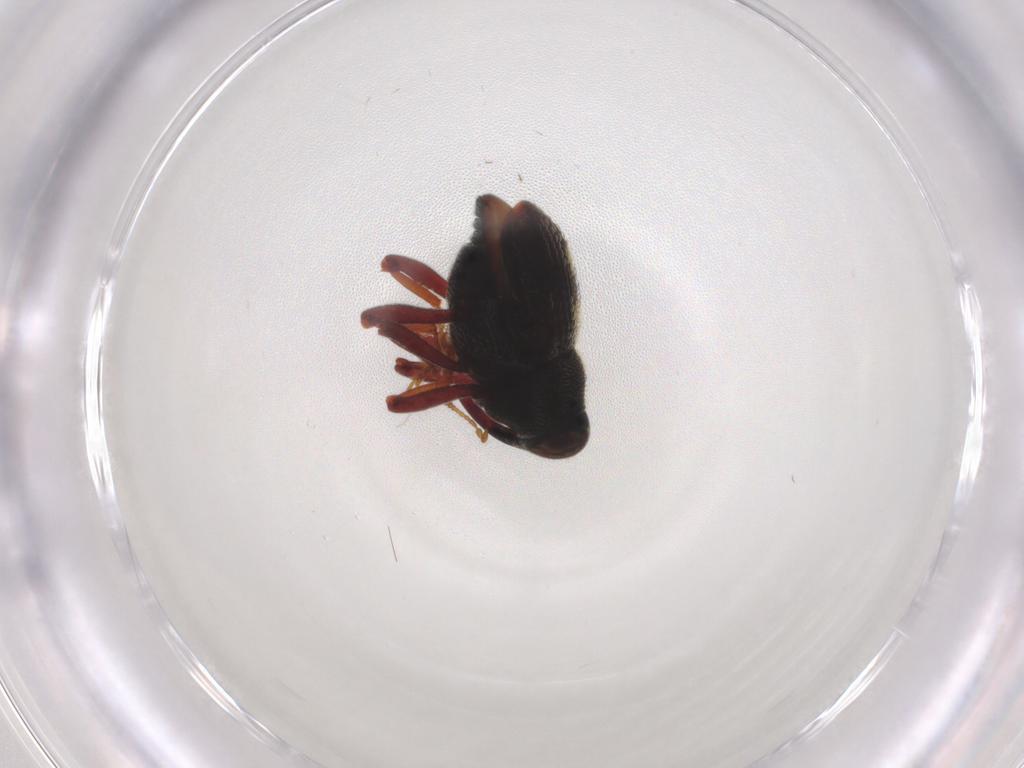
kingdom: Animalia
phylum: Arthropoda
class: Insecta
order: Coleoptera
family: Curculionidae
